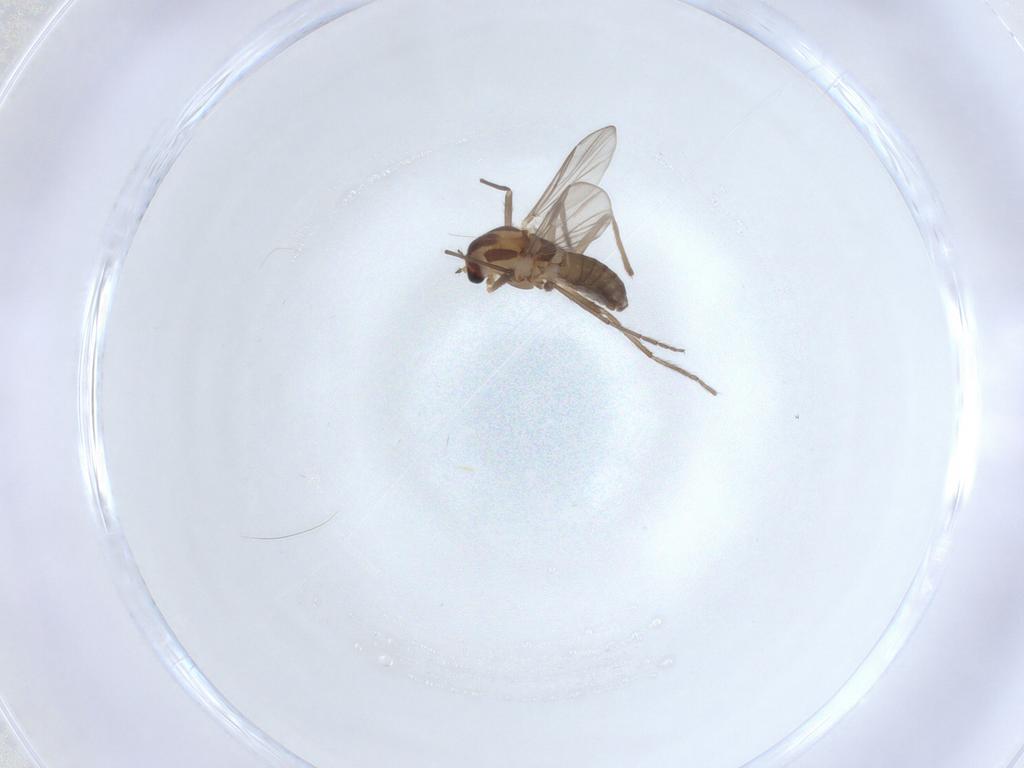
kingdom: Animalia
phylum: Arthropoda
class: Insecta
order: Diptera
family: Chironomidae
